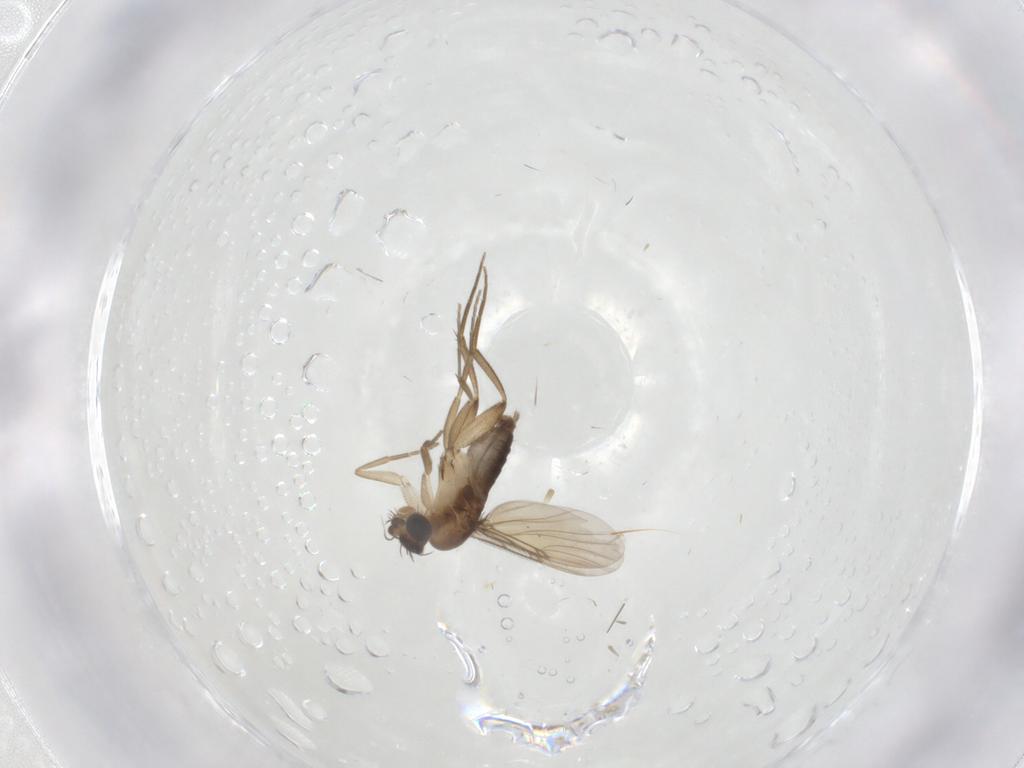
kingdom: Animalia
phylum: Arthropoda
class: Insecta
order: Diptera
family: Phoridae
